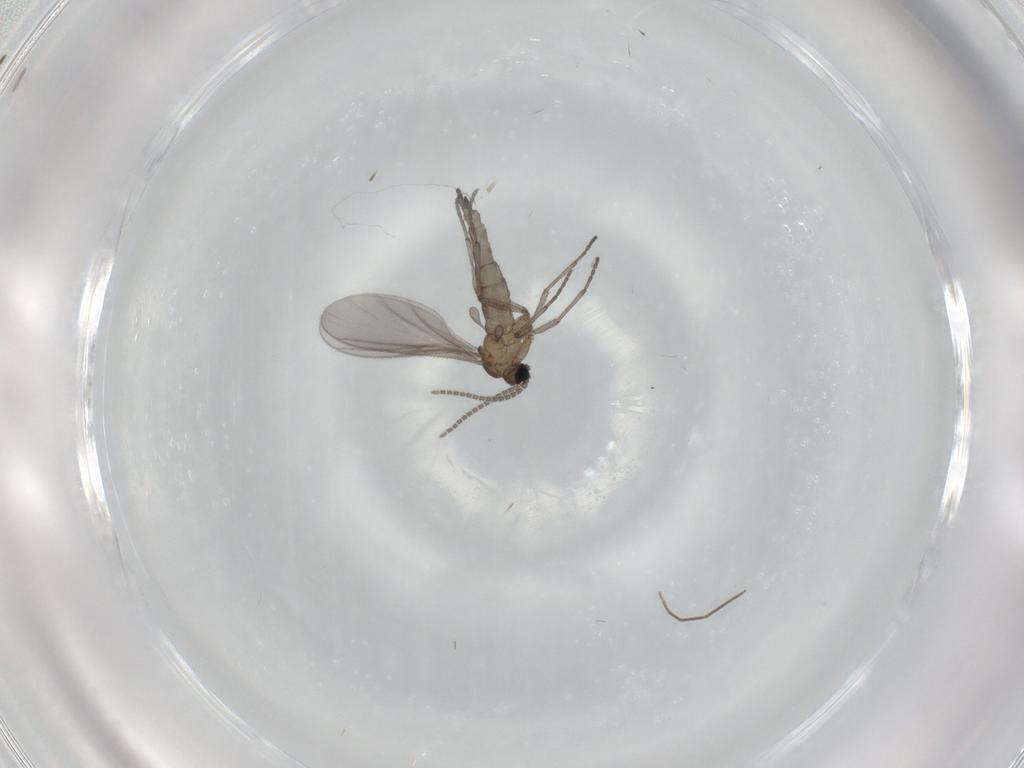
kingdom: Animalia
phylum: Arthropoda
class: Insecta
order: Diptera
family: Sciaridae
